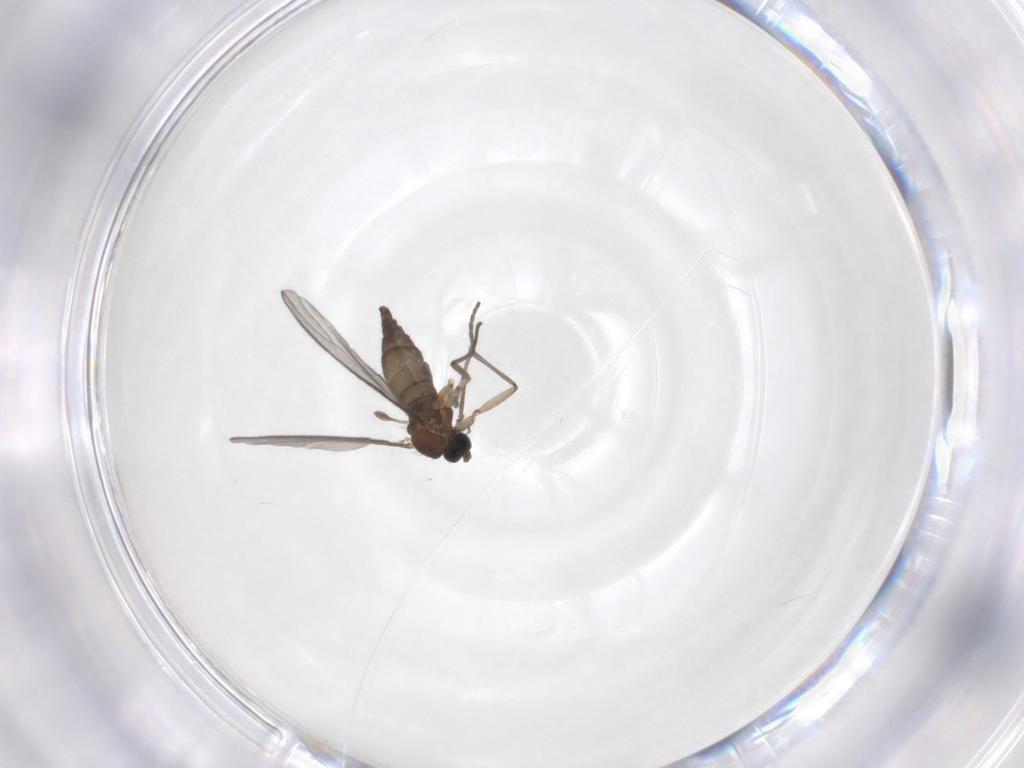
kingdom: Animalia
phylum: Arthropoda
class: Insecta
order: Diptera
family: Sciaridae
